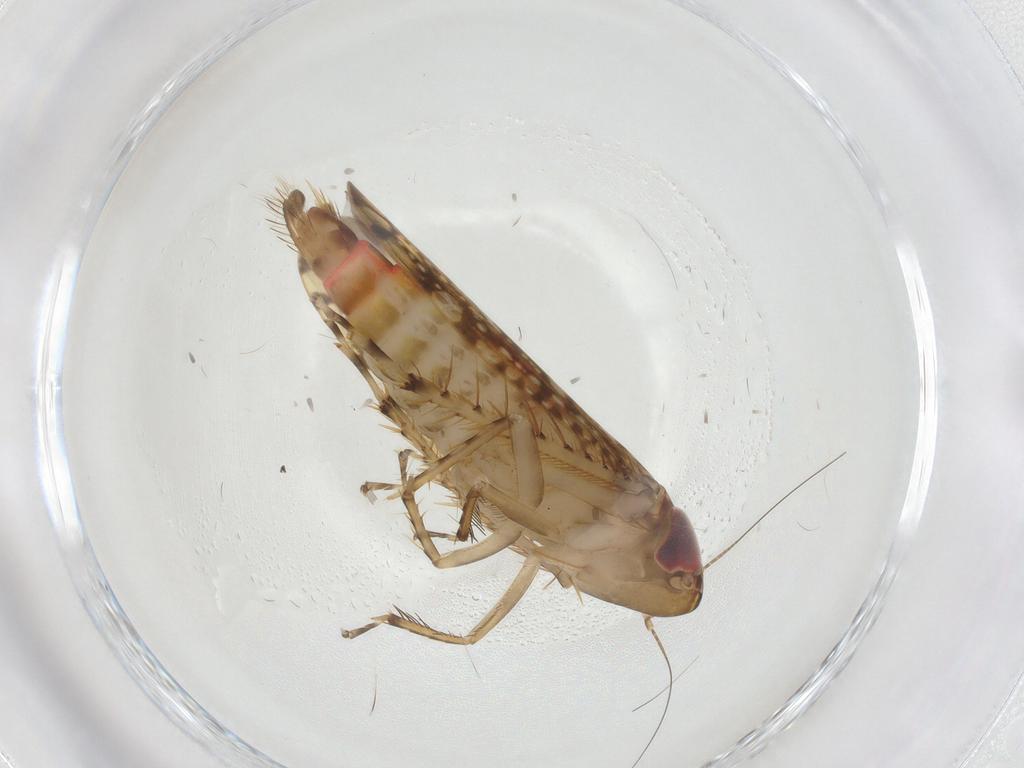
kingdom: Animalia
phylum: Arthropoda
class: Insecta
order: Hemiptera
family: Cicadellidae
